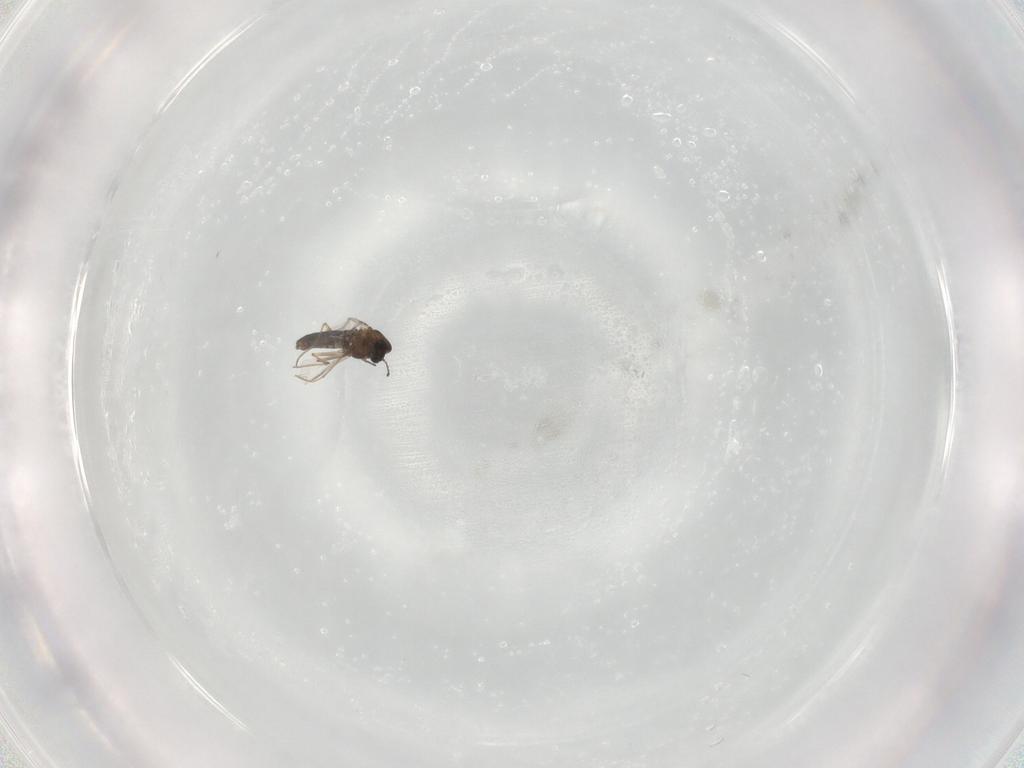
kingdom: Animalia
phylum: Arthropoda
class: Insecta
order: Diptera
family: Chironomidae
